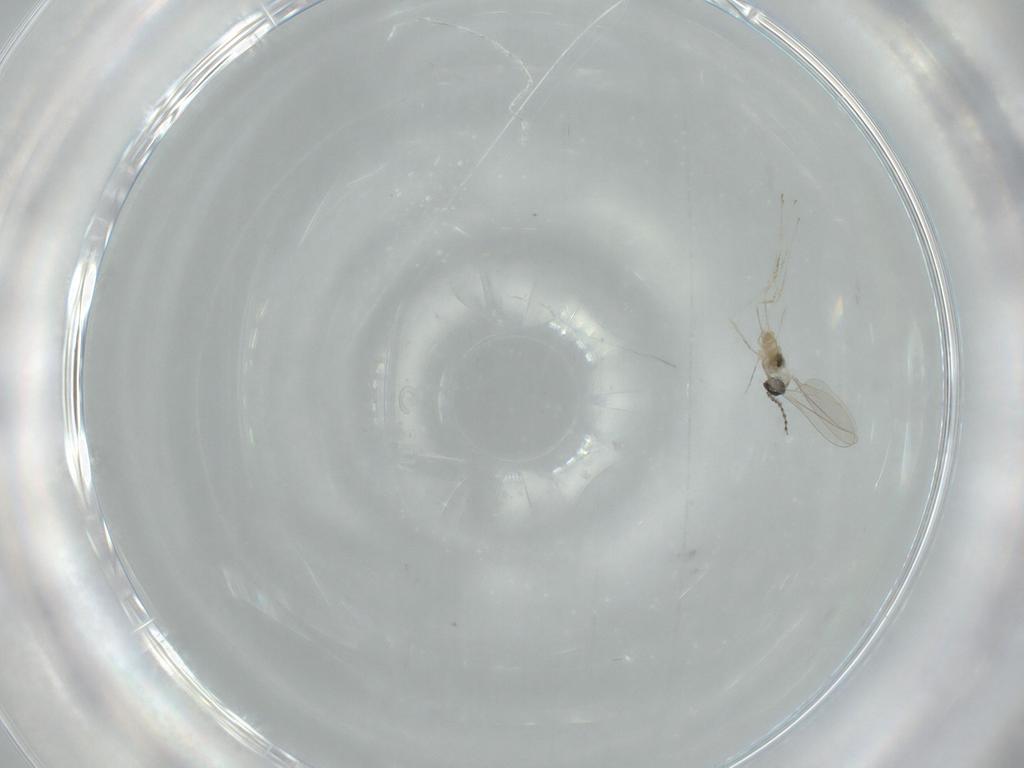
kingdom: Animalia
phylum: Arthropoda
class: Insecta
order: Diptera
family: Cecidomyiidae
